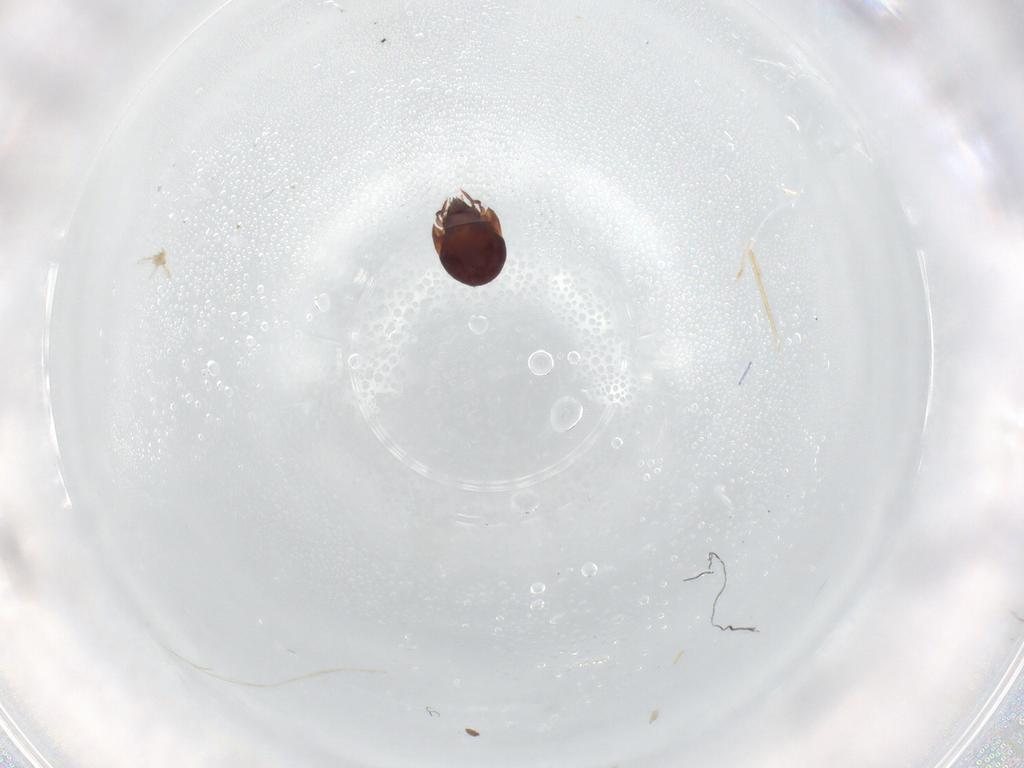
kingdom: Animalia
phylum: Arthropoda
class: Arachnida
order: Sarcoptiformes
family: Humerobatidae
